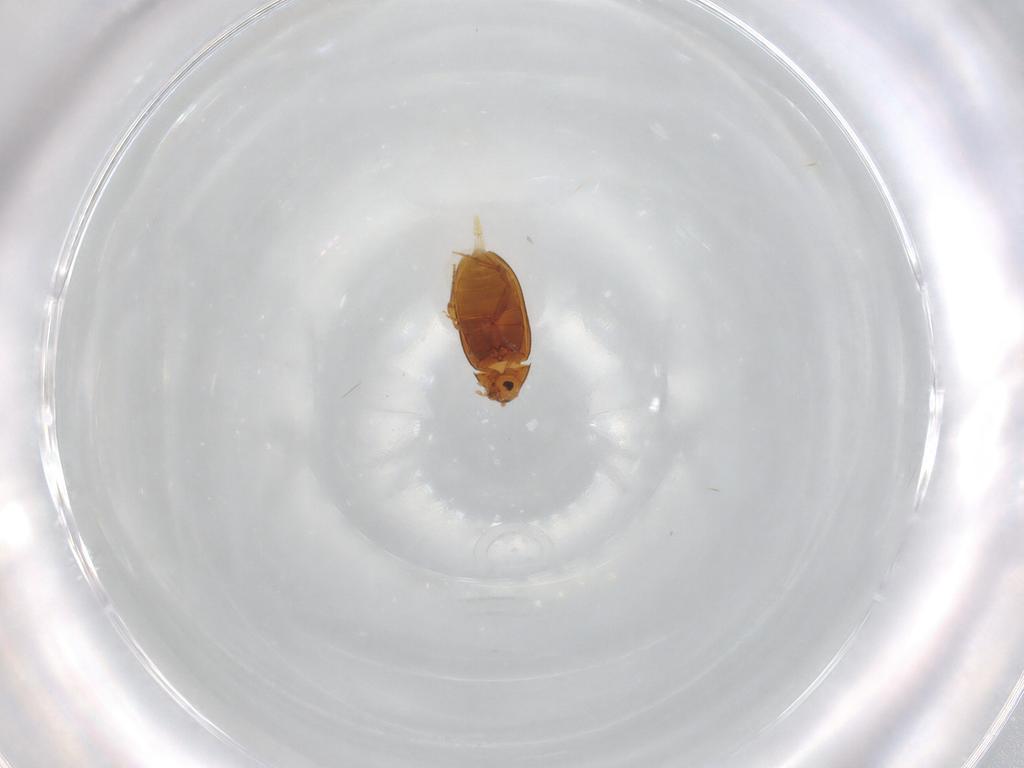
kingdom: Animalia
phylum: Arthropoda
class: Insecta
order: Coleoptera
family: Melandryidae
